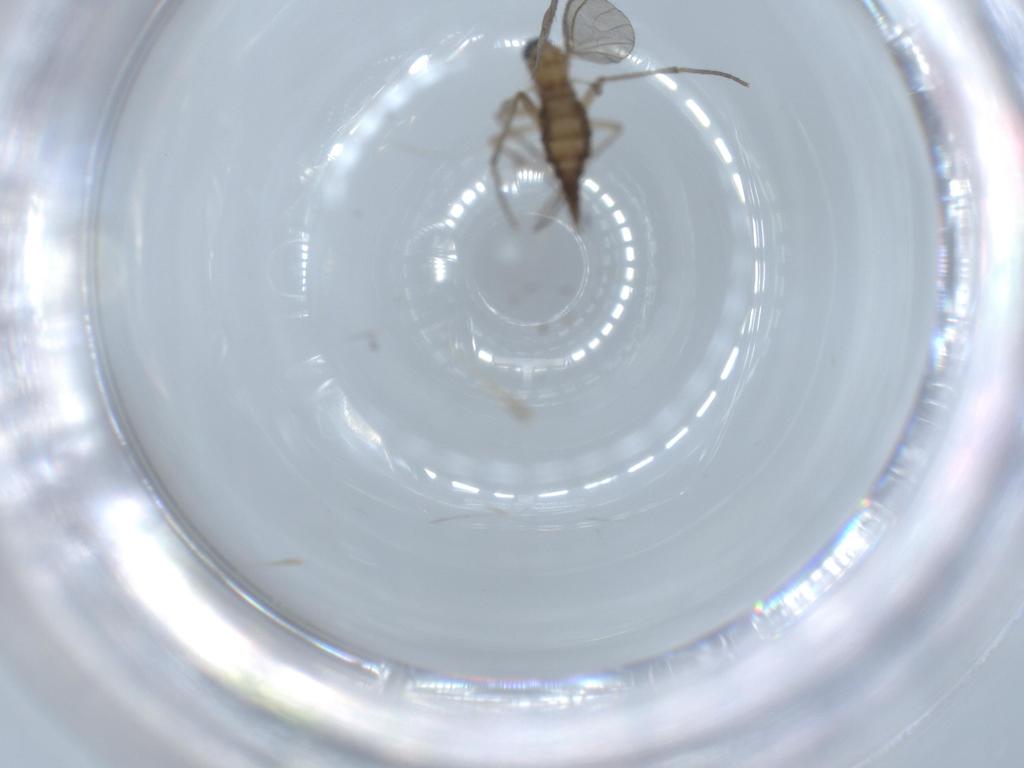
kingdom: Animalia
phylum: Arthropoda
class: Insecta
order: Diptera
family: Sciaridae
